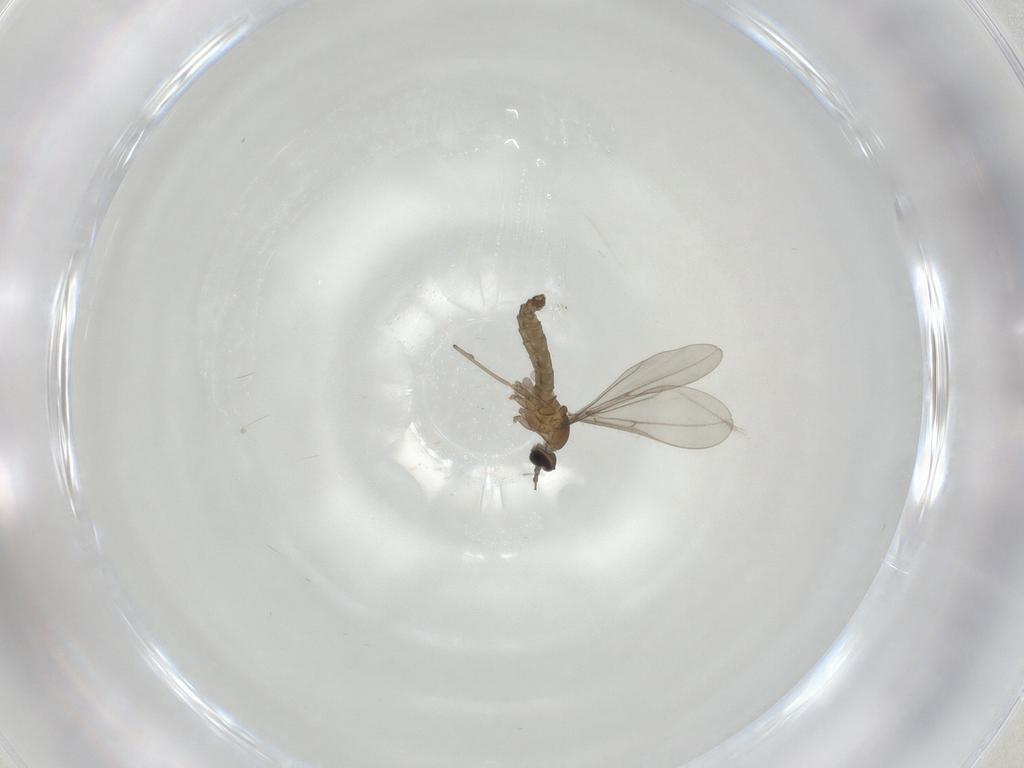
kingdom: Animalia
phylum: Arthropoda
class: Insecta
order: Diptera
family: Cecidomyiidae
